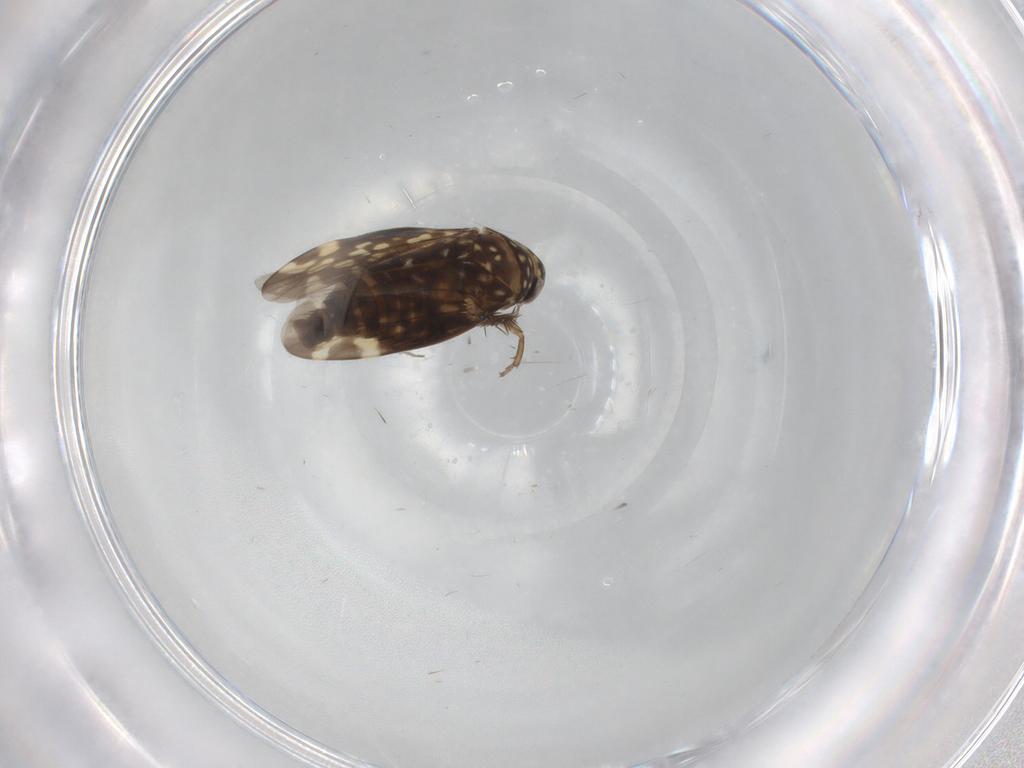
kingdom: Animalia
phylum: Arthropoda
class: Insecta
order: Hemiptera
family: Cicadellidae
